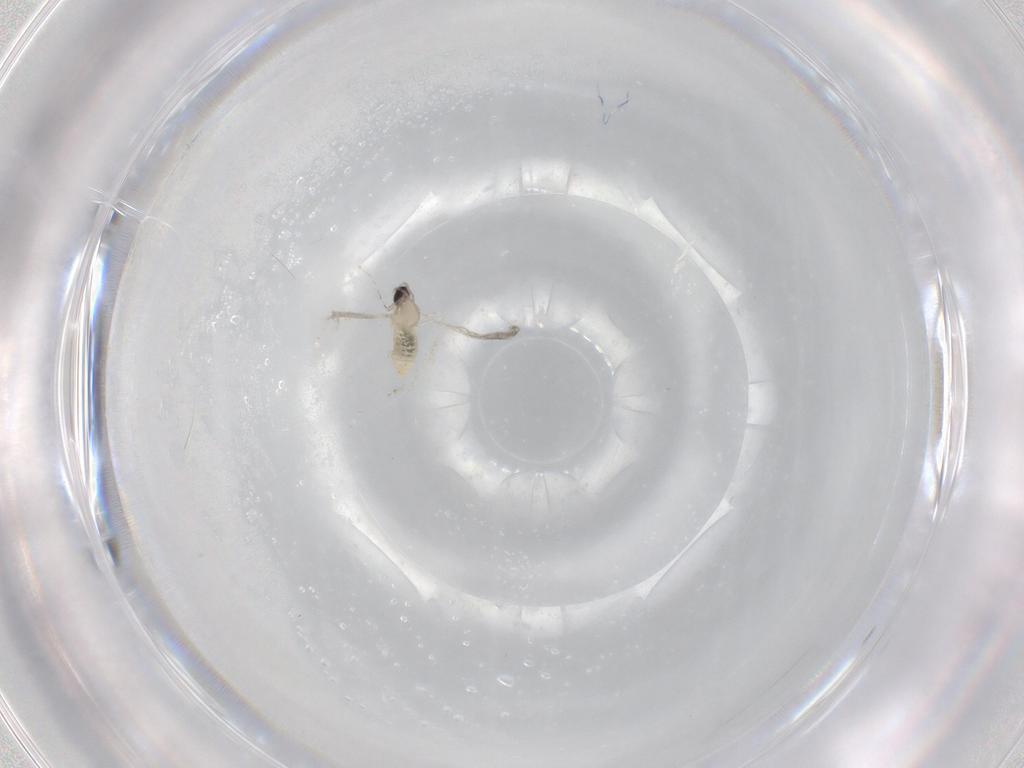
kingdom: Animalia
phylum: Arthropoda
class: Insecta
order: Diptera
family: Cecidomyiidae
